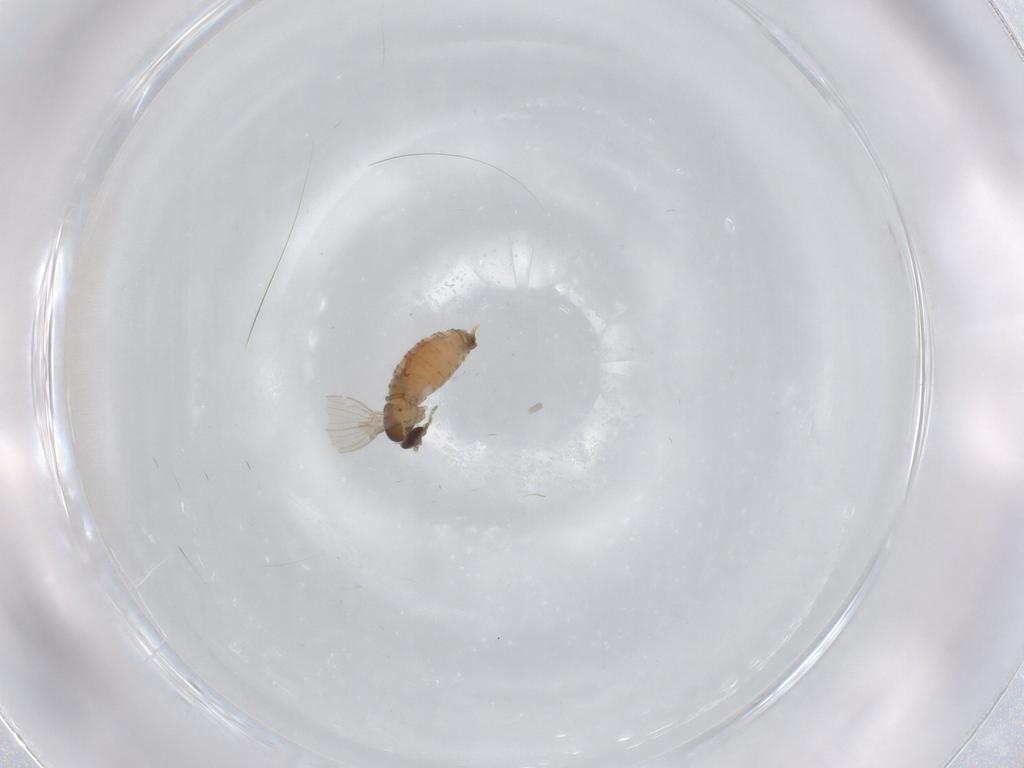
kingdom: Animalia
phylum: Arthropoda
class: Insecta
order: Diptera
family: Psychodidae
